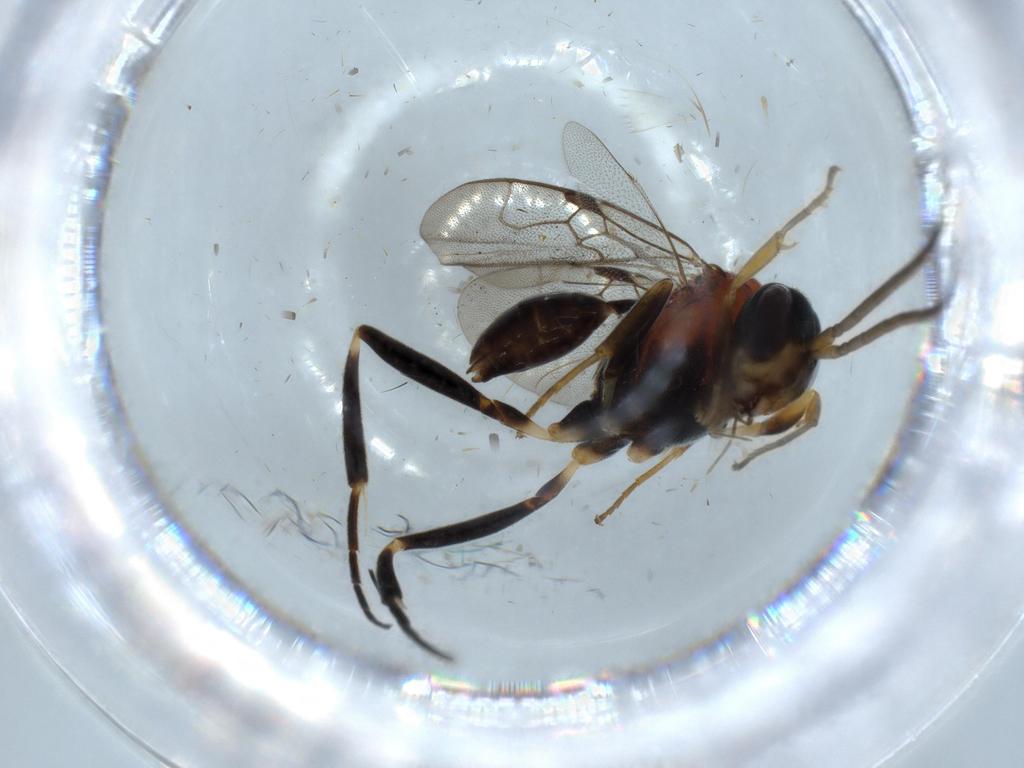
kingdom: Animalia
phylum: Arthropoda
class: Insecta
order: Hymenoptera
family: Evaniidae
